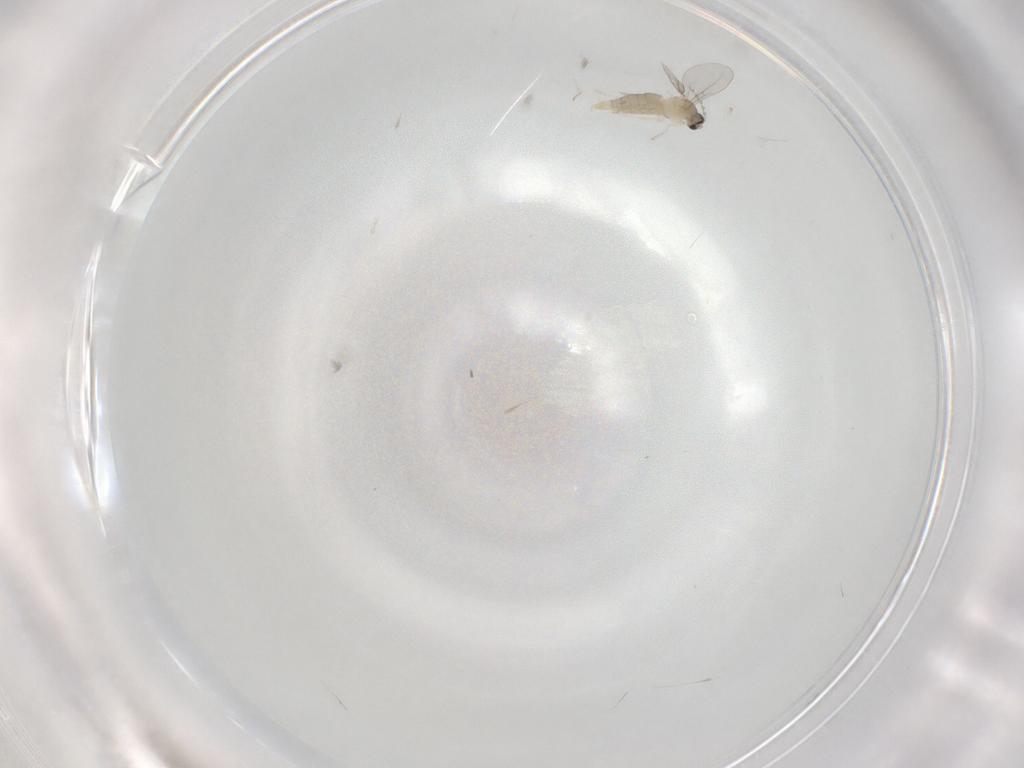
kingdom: Animalia
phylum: Arthropoda
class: Insecta
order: Diptera
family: Cecidomyiidae
